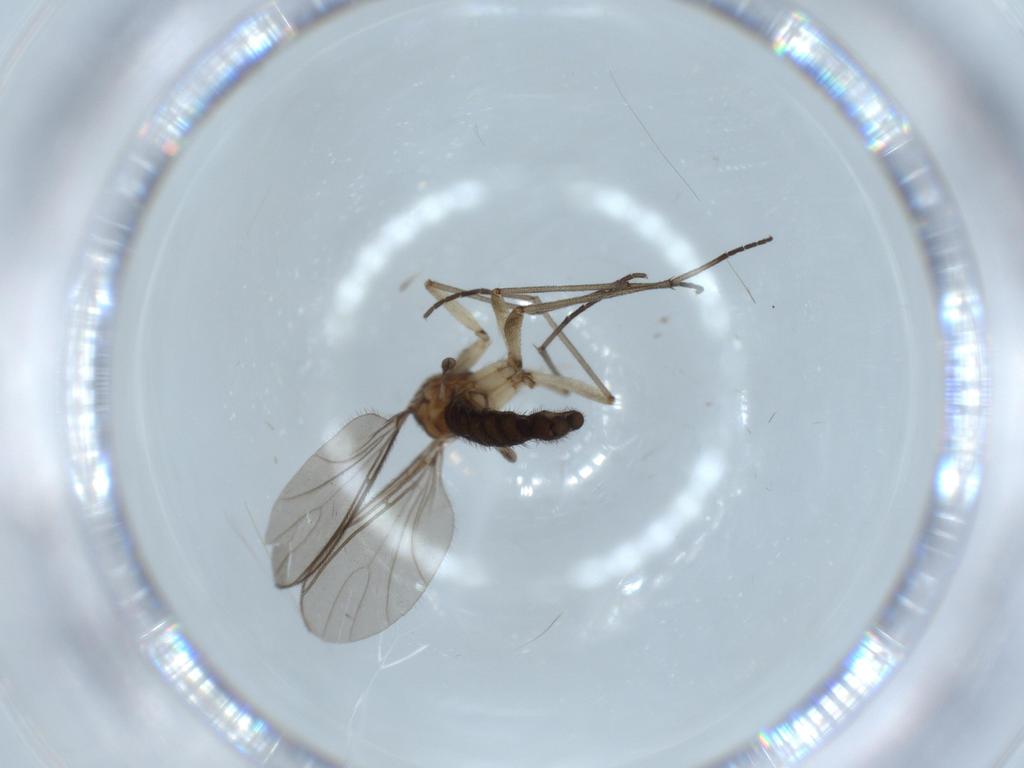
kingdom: Animalia
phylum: Arthropoda
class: Insecta
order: Diptera
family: Sciaridae
